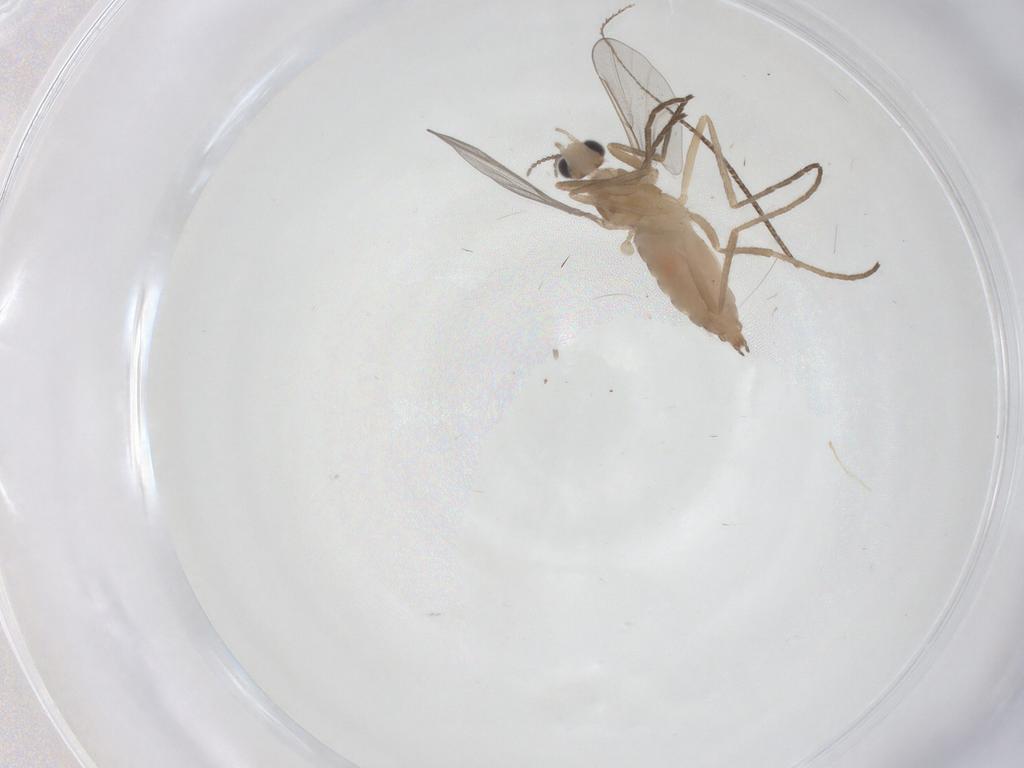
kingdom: Animalia
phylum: Arthropoda
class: Insecta
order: Diptera
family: Cecidomyiidae
